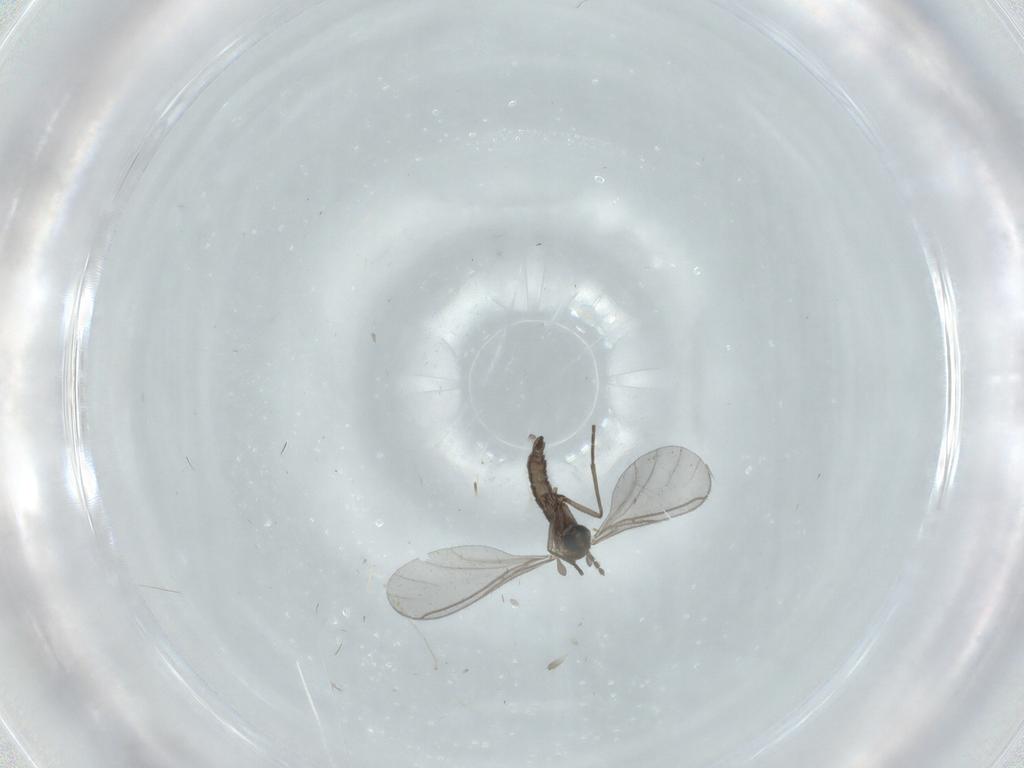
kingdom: Animalia
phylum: Arthropoda
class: Insecta
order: Diptera
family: Sciaridae
